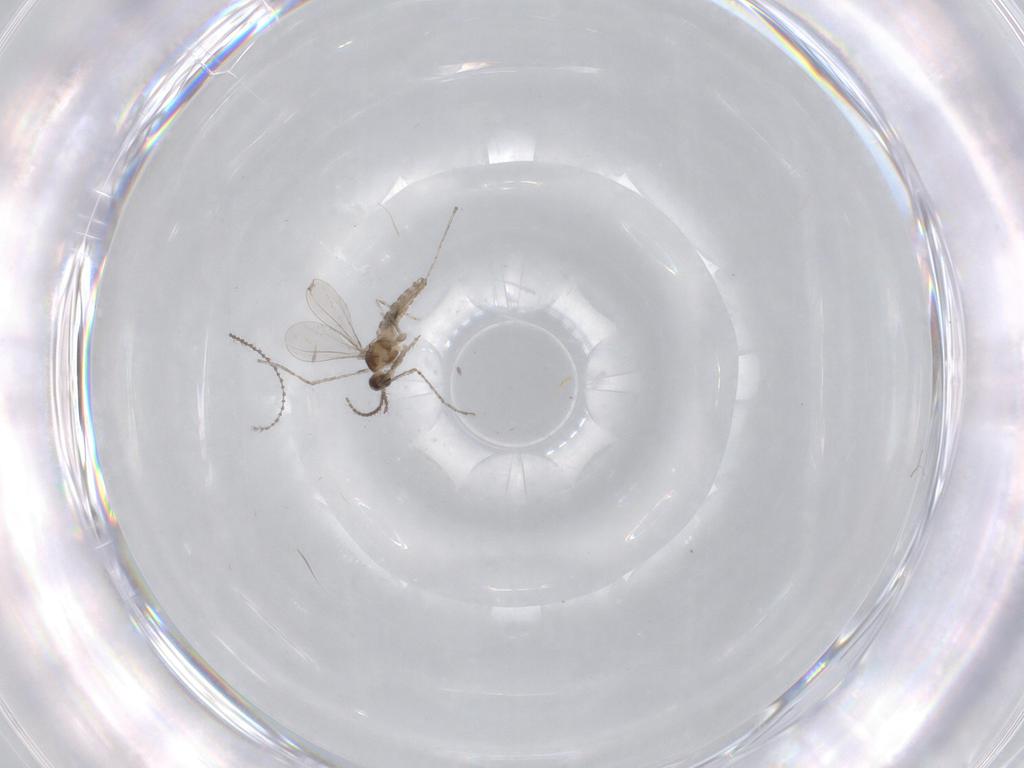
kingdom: Animalia
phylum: Arthropoda
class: Insecta
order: Diptera
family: Cecidomyiidae
